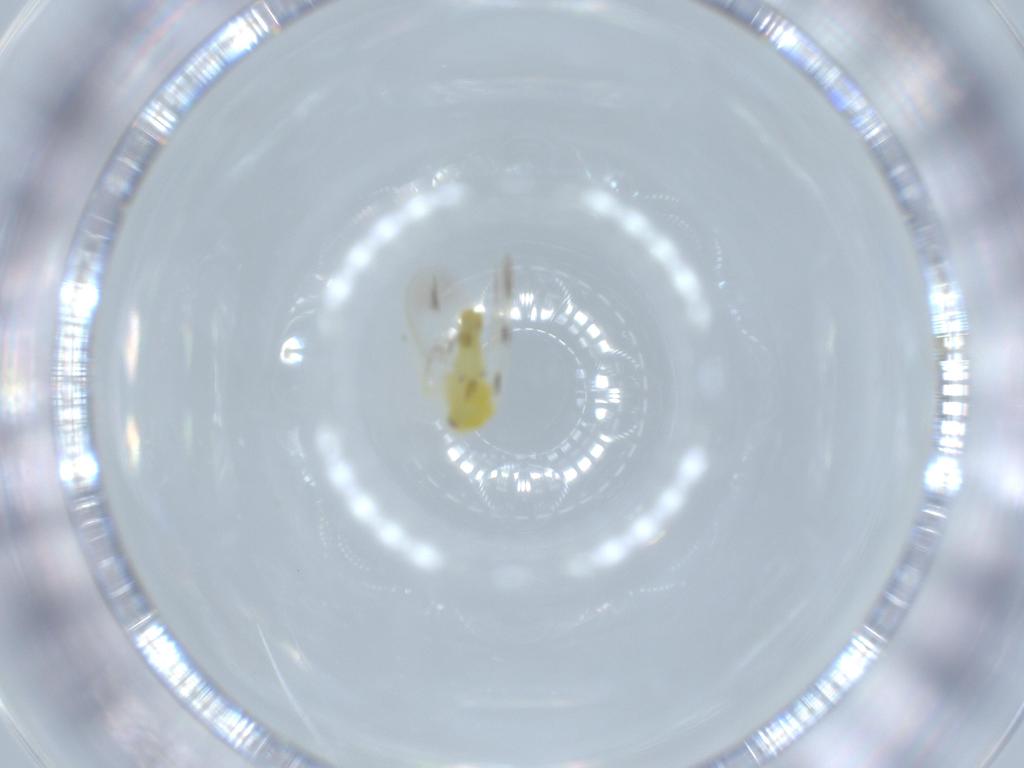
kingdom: Animalia
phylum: Arthropoda
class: Insecta
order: Hemiptera
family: Aleyrodidae
